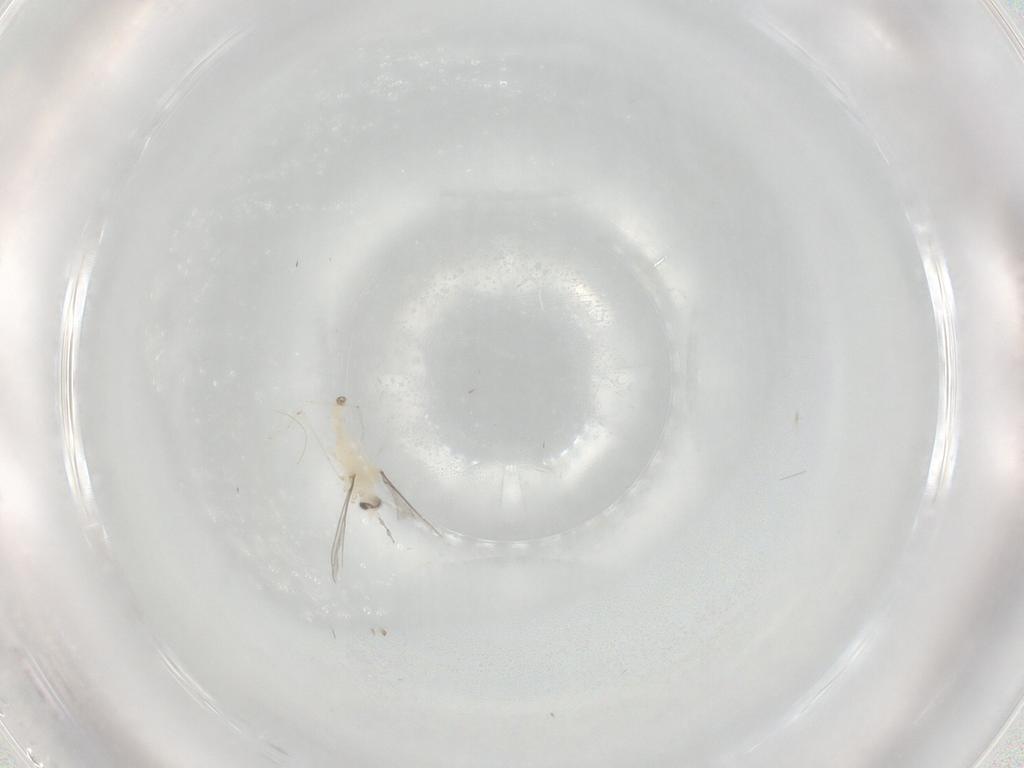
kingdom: Animalia
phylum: Arthropoda
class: Insecta
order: Diptera
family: Cecidomyiidae
